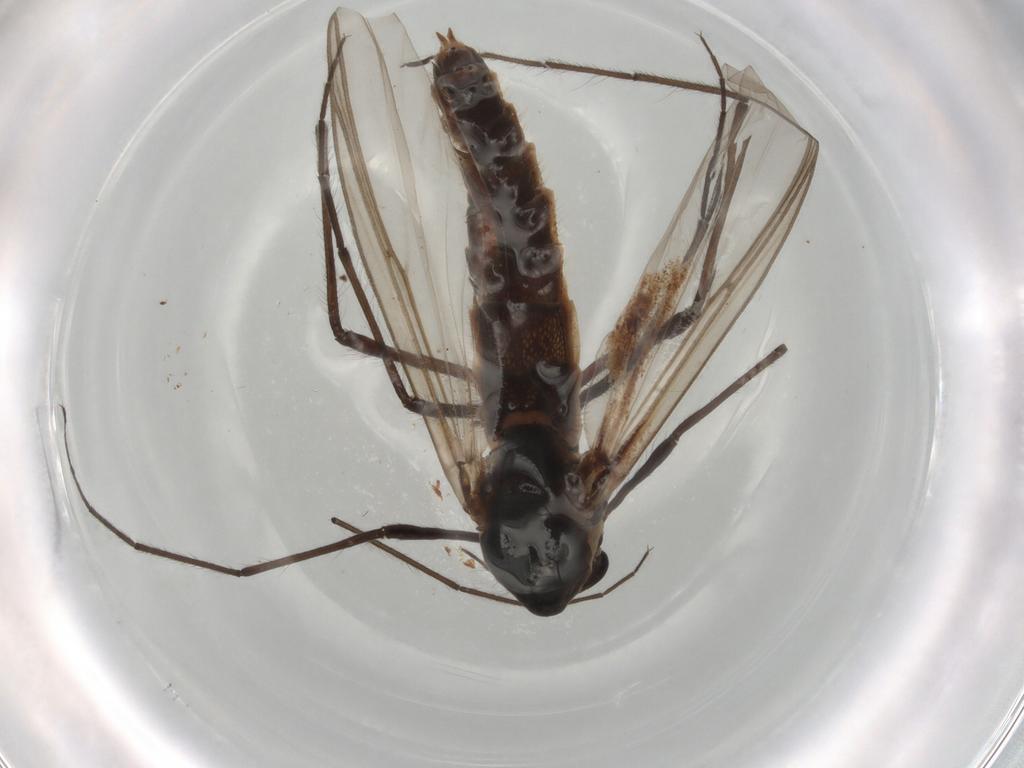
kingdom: Animalia
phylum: Arthropoda
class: Insecta
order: Diptera
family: Chironomidae
